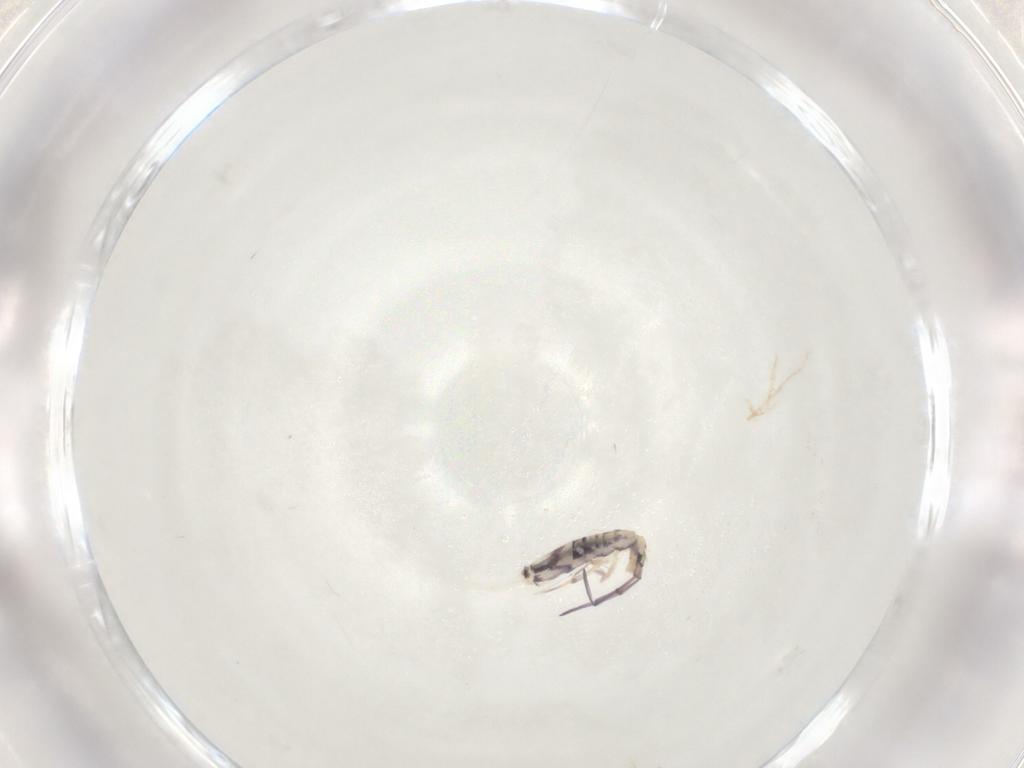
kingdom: Animalia
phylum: Arthropoda
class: Collembola
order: Entomobryomorpha
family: Entomobryidae
